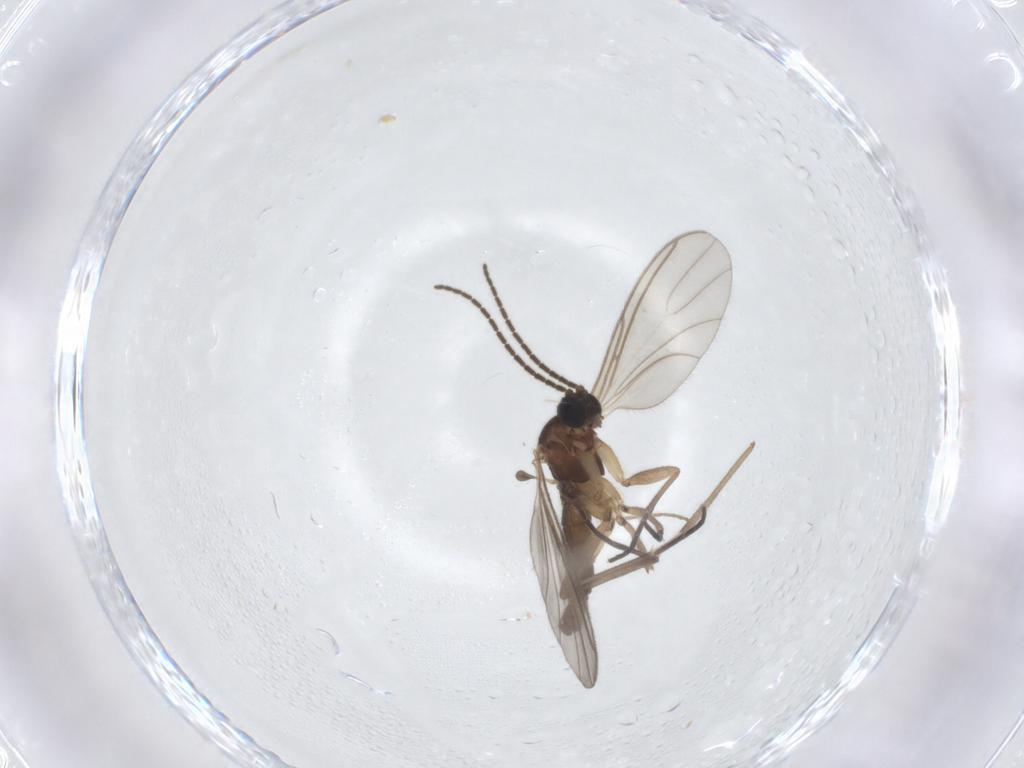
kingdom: Animalia
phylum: Arthropoda
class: Insecta
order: Diptera
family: Sciaridae
